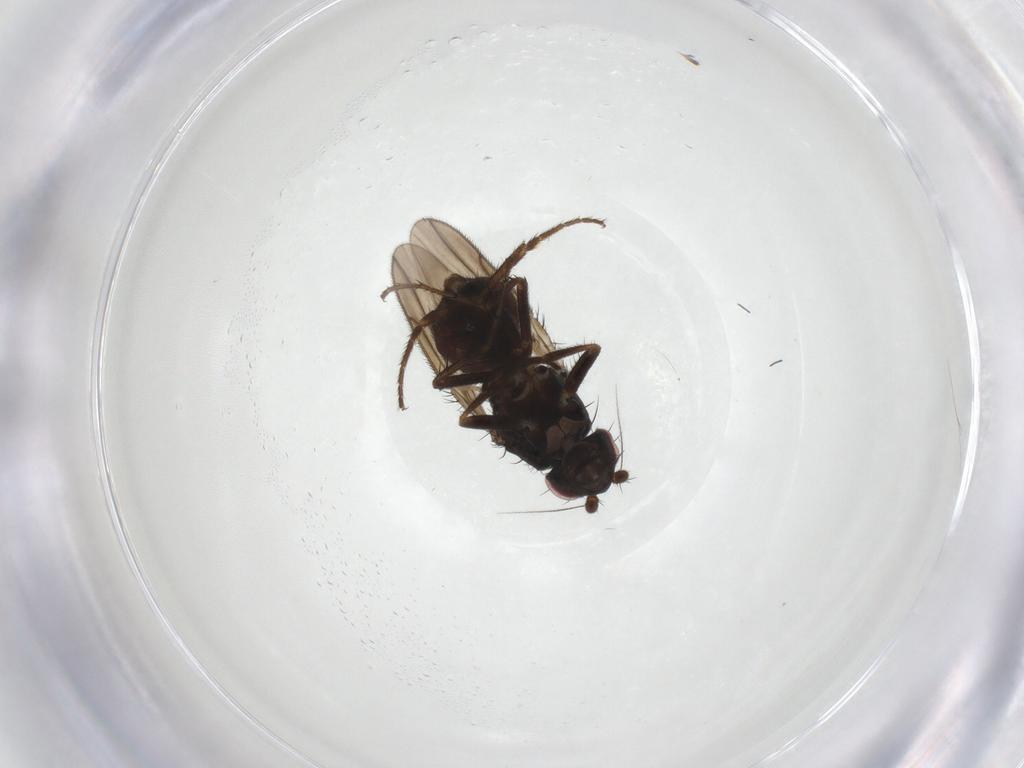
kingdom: Animalia
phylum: Arthropoda
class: Insecta
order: Diptera
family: Sphaeroceridae
